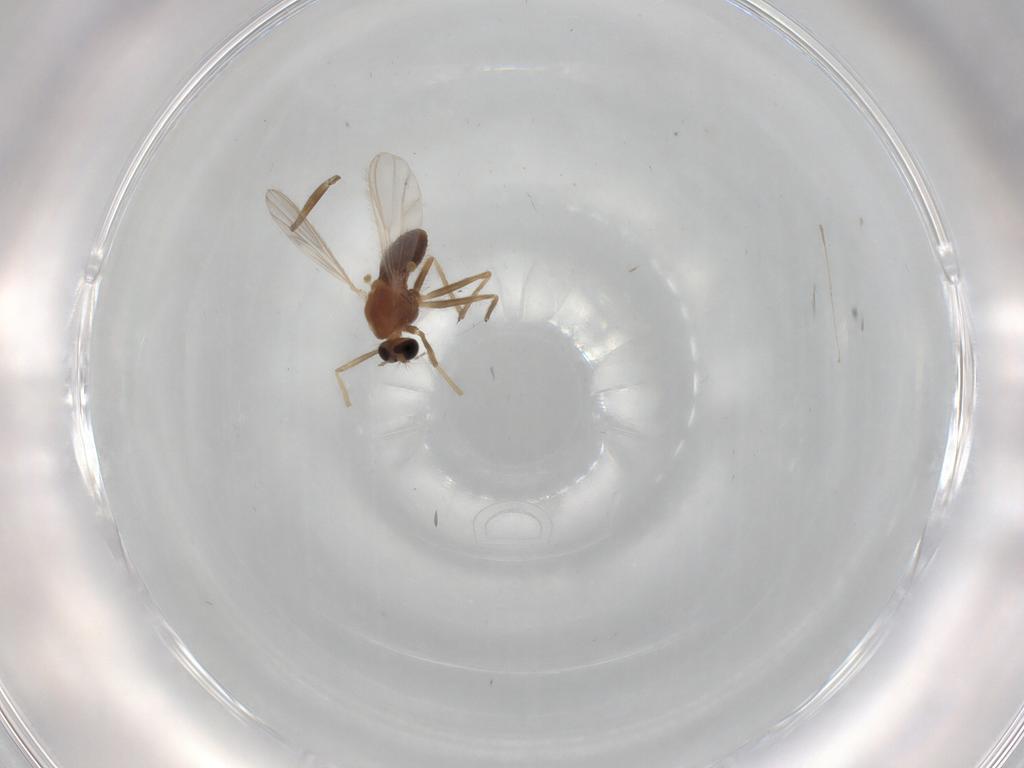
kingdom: Animalia
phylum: Arthropoda
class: Insecta
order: Diptera
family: Chironomidae
